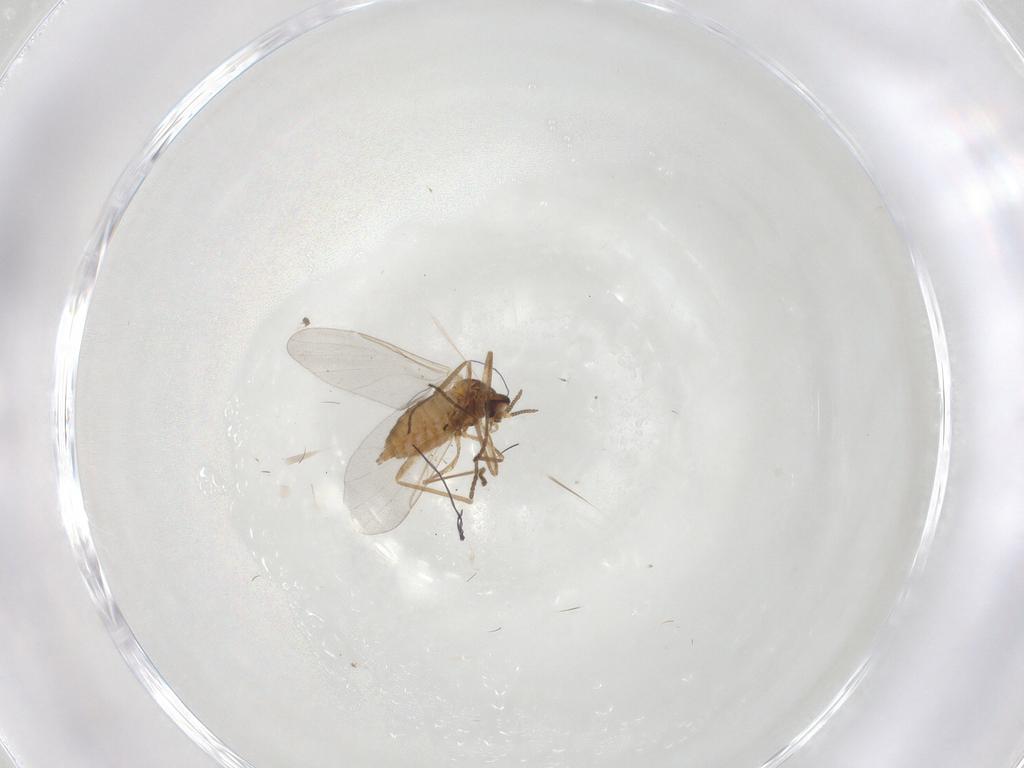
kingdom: Animalia
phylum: Arthropoda
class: Insecta
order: Diptera
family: Cecidomyiidae
